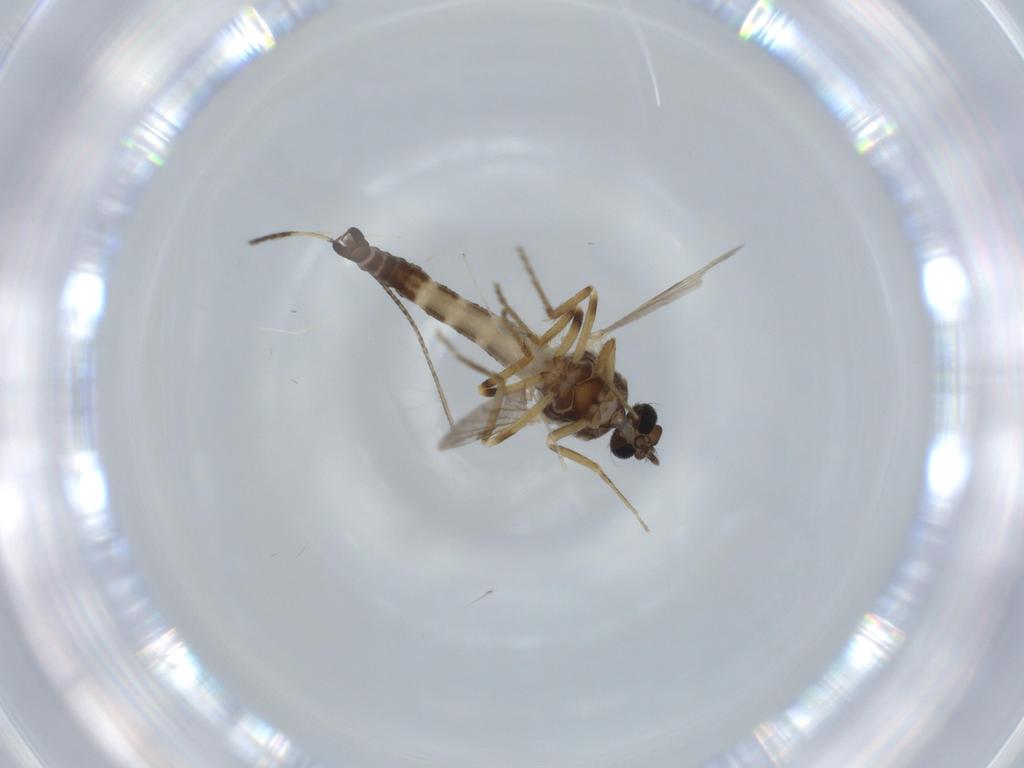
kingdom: Animalia
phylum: Arthropoda
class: Insecta
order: Diptera
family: Cecidomyiidae
